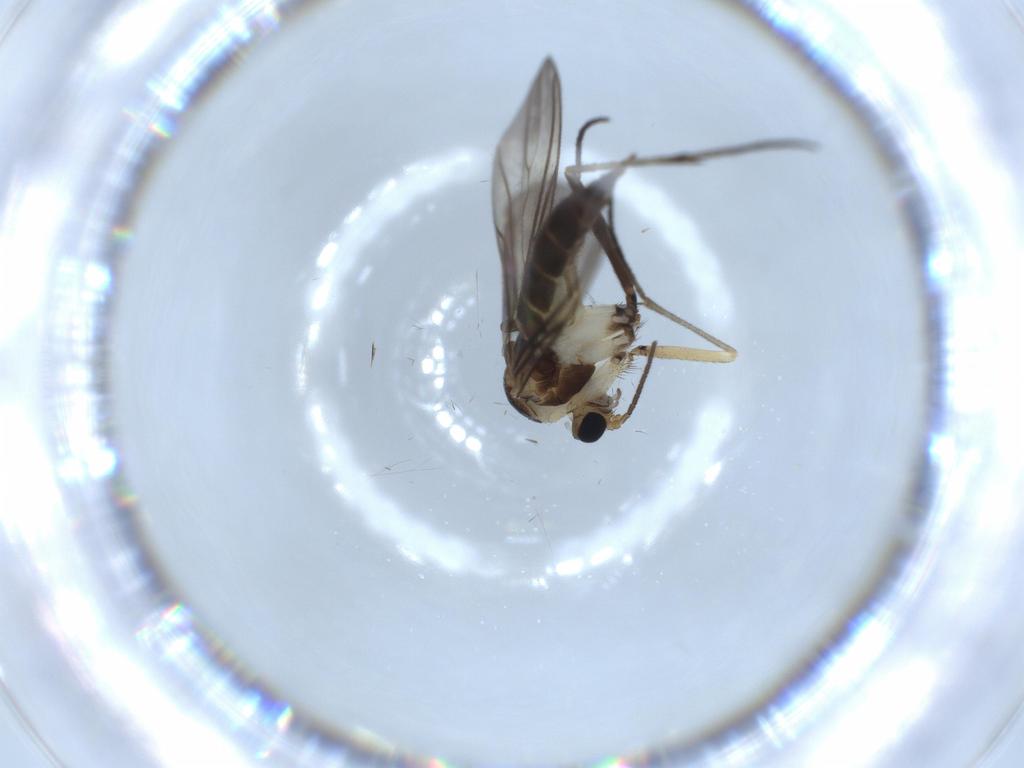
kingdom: Animalia
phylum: Arthropoda
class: Insecta
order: Diptera
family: Sciaridae
